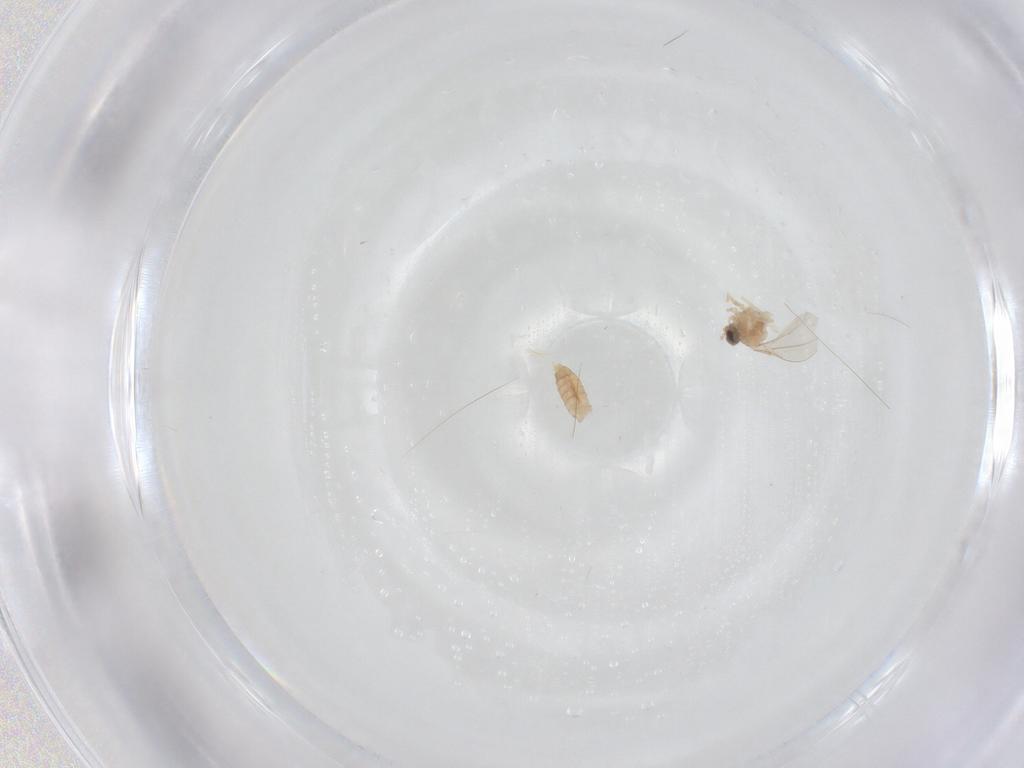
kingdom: Animalia
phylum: Arthropoda
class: Insecta
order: Diptera
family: Cecidomyiidae
